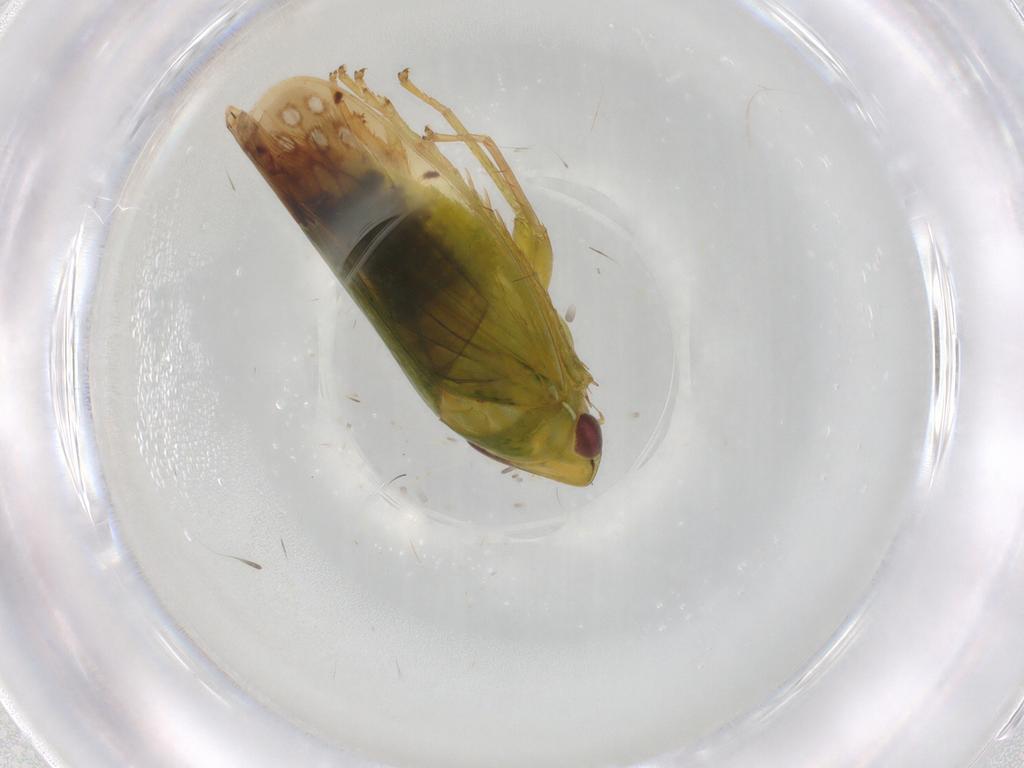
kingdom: Animalia
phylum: Arthropoda
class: Insecta
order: Hemiptera
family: Cicadellidae
